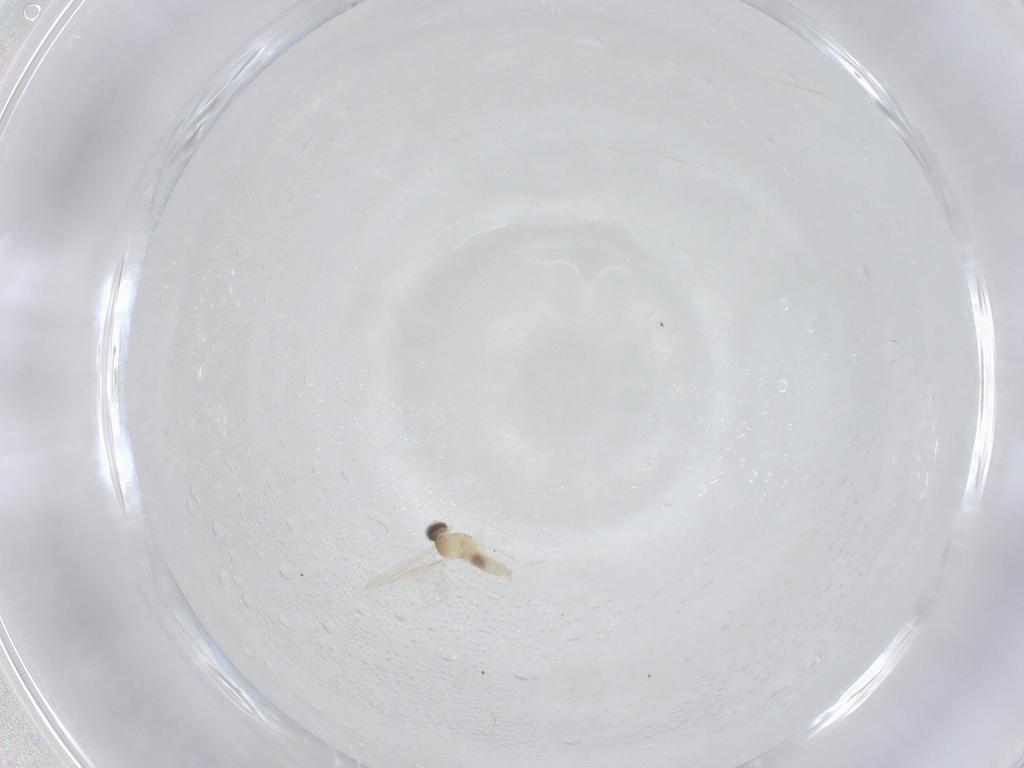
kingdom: Animalia
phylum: Arthropoda
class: Insecta
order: Diptera
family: Cecidomyiidae
